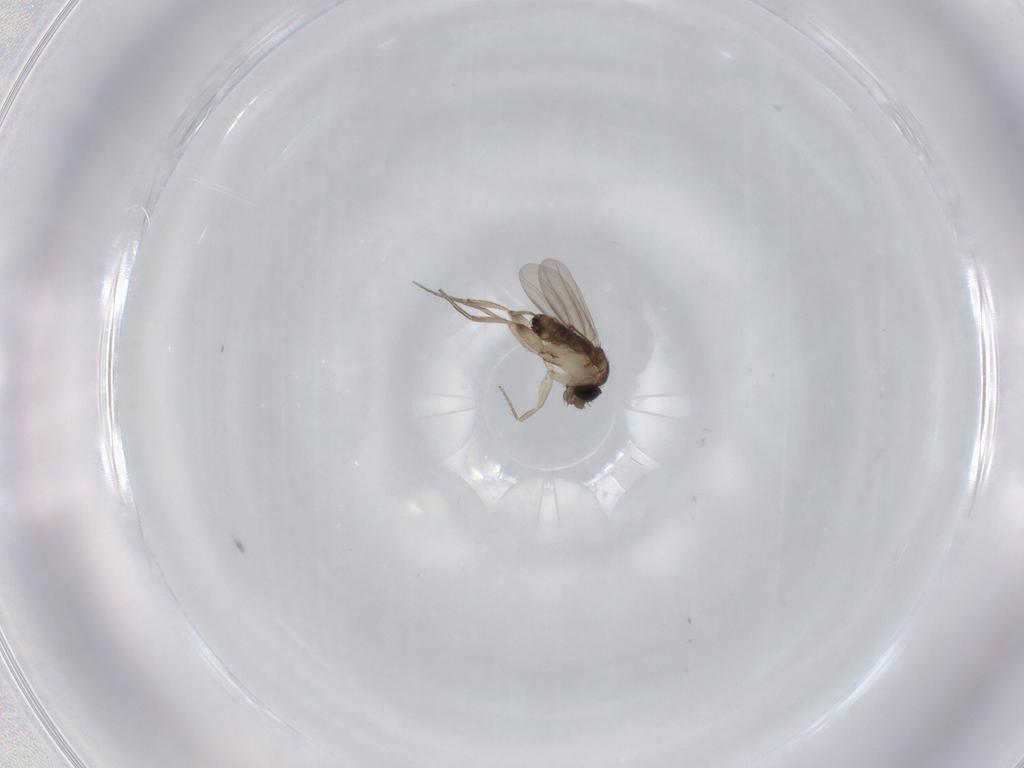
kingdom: Animalia
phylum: Arthropoda
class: Insecta
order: Diptera
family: Phoridae
